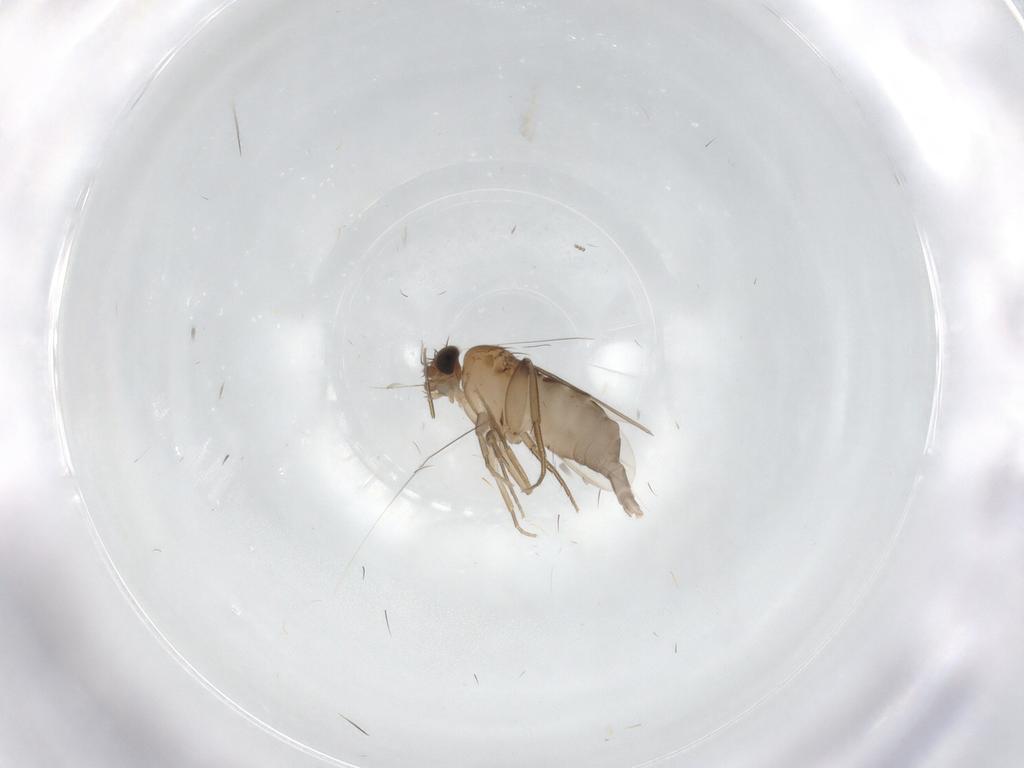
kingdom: Animalia
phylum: Arthropoda
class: Insecta
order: Diptera
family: Phoridae
